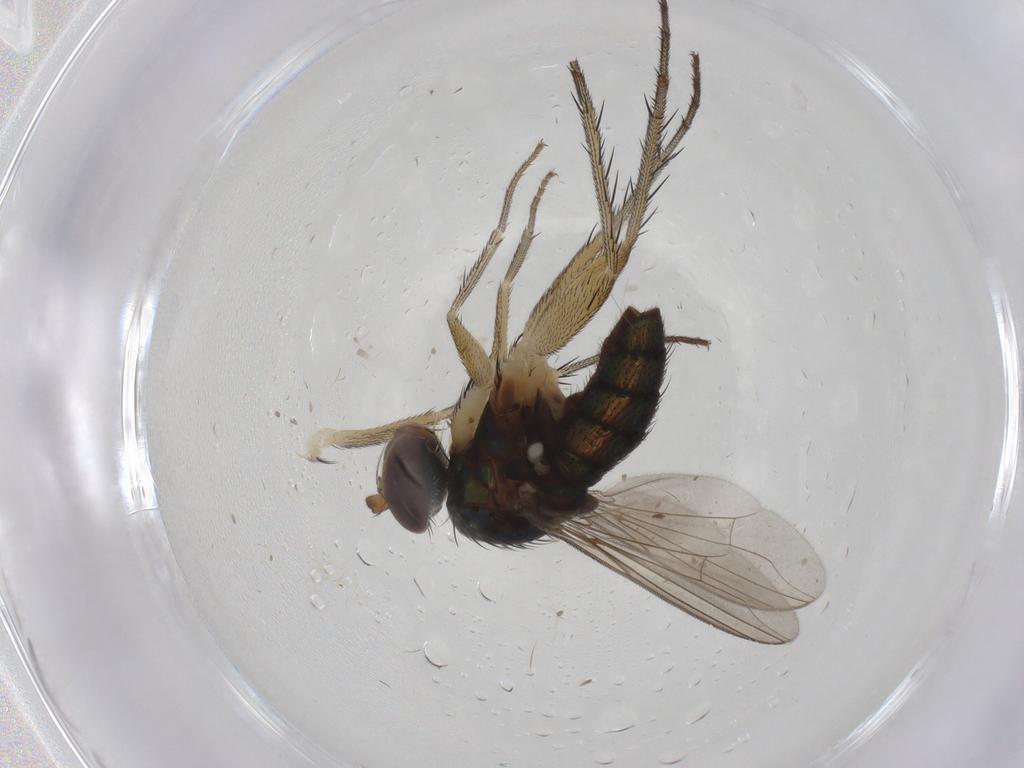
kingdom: Animalia
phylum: Arthropoda
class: Insecta
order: Diptera
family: Dolichopodidae
